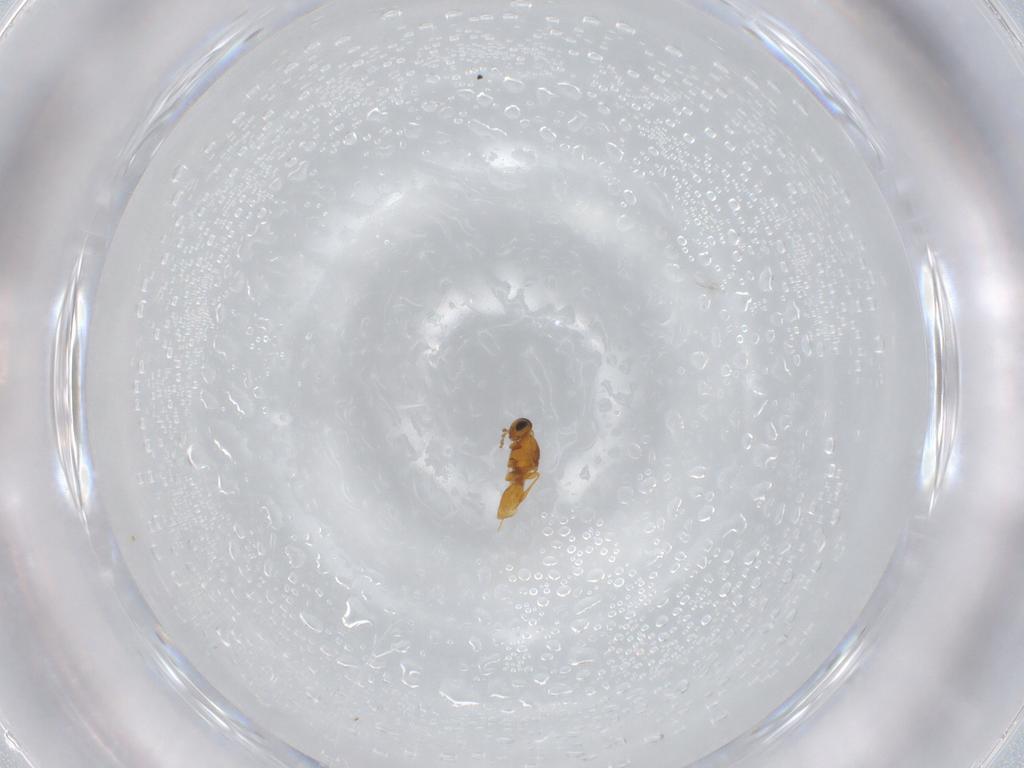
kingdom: Animalia
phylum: Arthropoda
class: Insecta
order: Hymenoptera
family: Platygastridae
